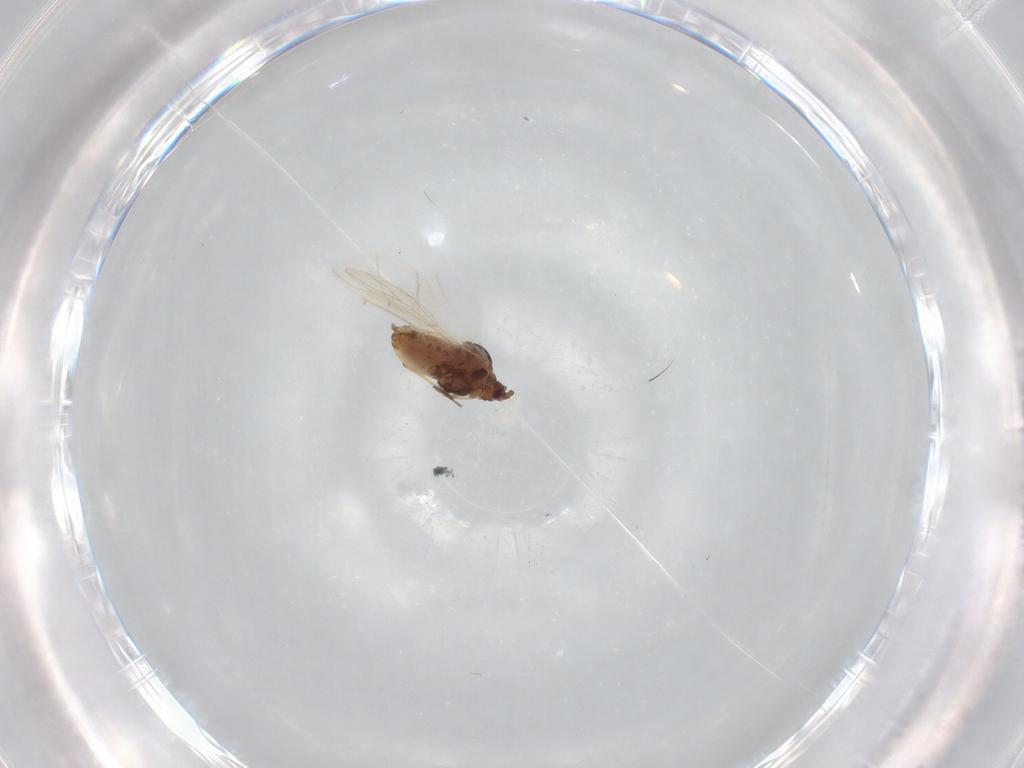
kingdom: Animalia
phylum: Arthropoda
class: Insecta
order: Hemiptera
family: Aphididae
